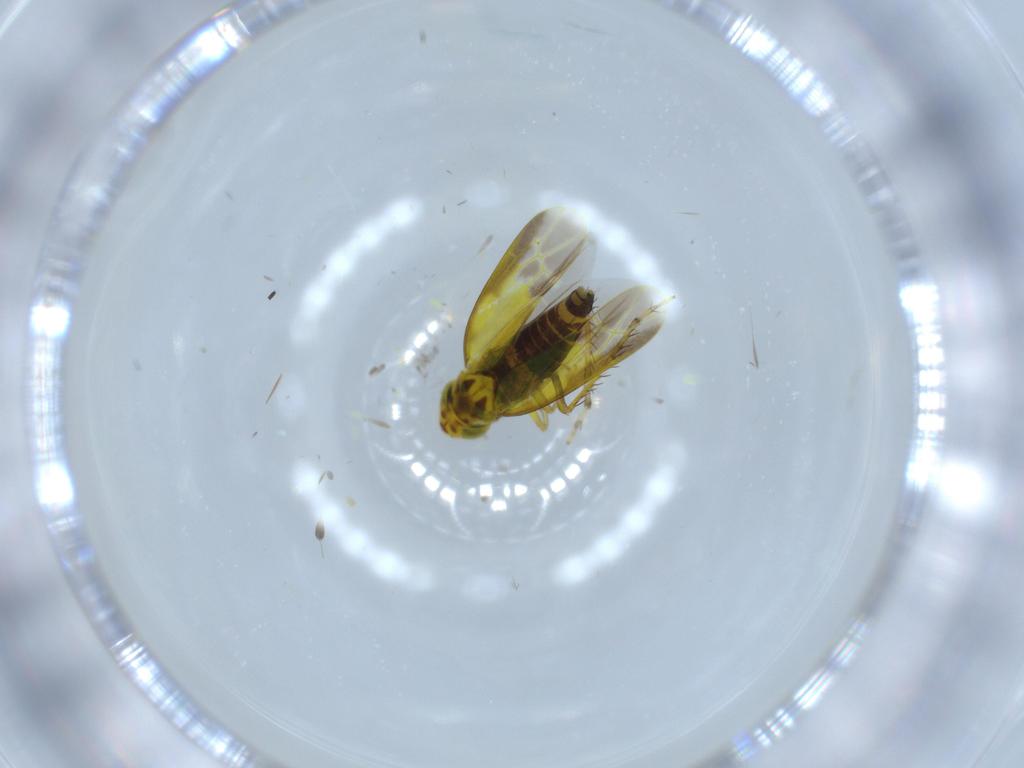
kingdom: Animalia
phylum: Arthropoda
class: Insecta
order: Hemiptera
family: Cicadellidae
